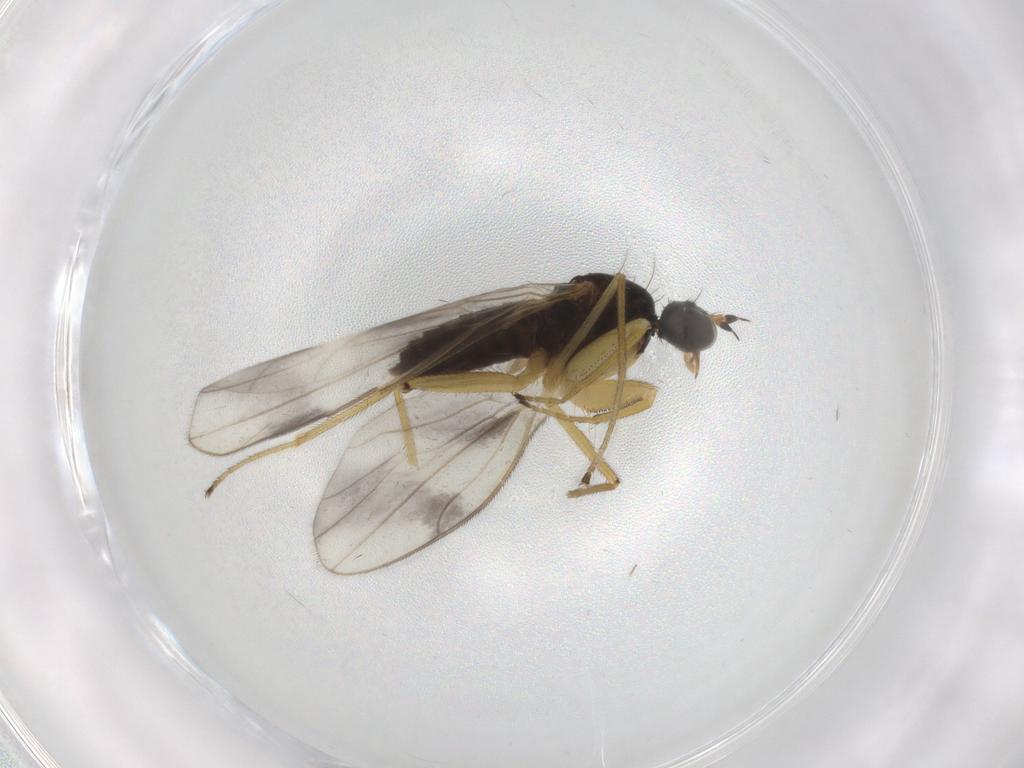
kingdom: Animalia
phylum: Arthropoda
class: Insecta
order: Diptera
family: Empididae
